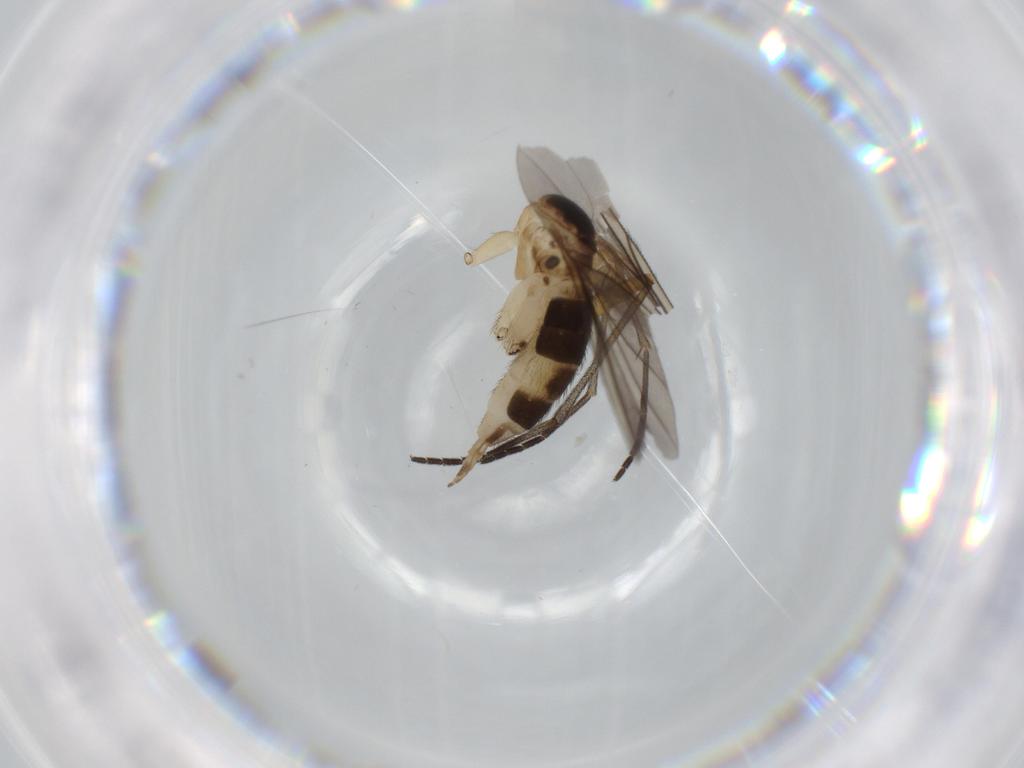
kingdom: Animalia
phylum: Arthropoda
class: Insecta
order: Diptera
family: Sciaridae
